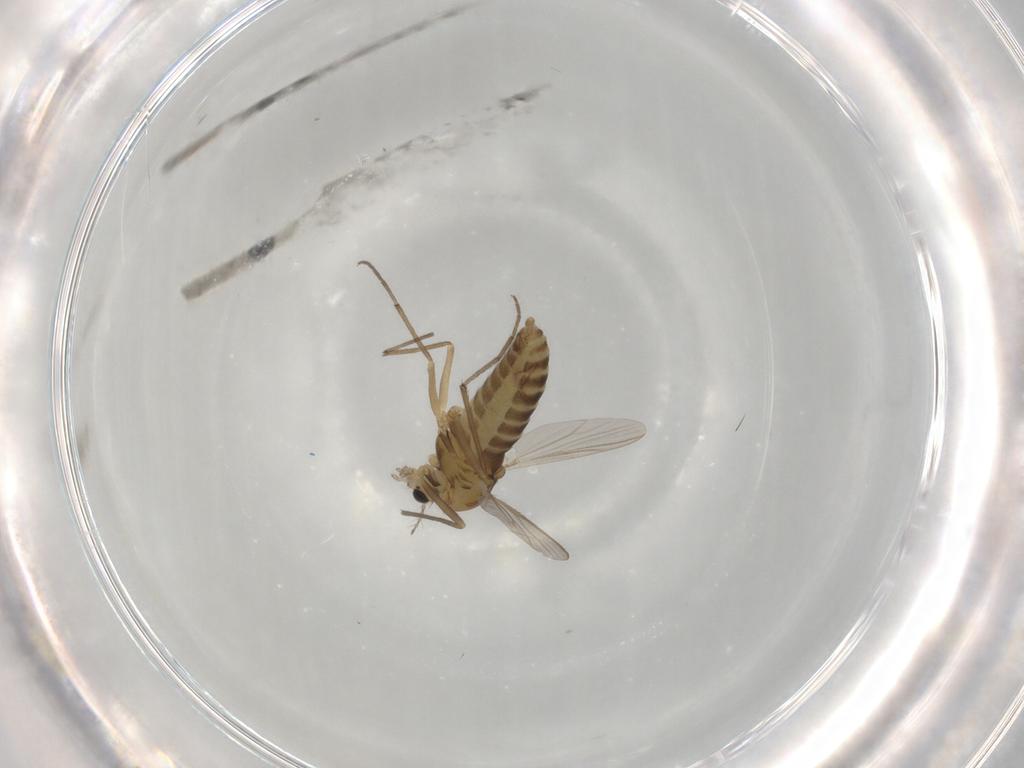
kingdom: Animalia
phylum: Arthropoda
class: Insecta
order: Diptera
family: Chironomidae
